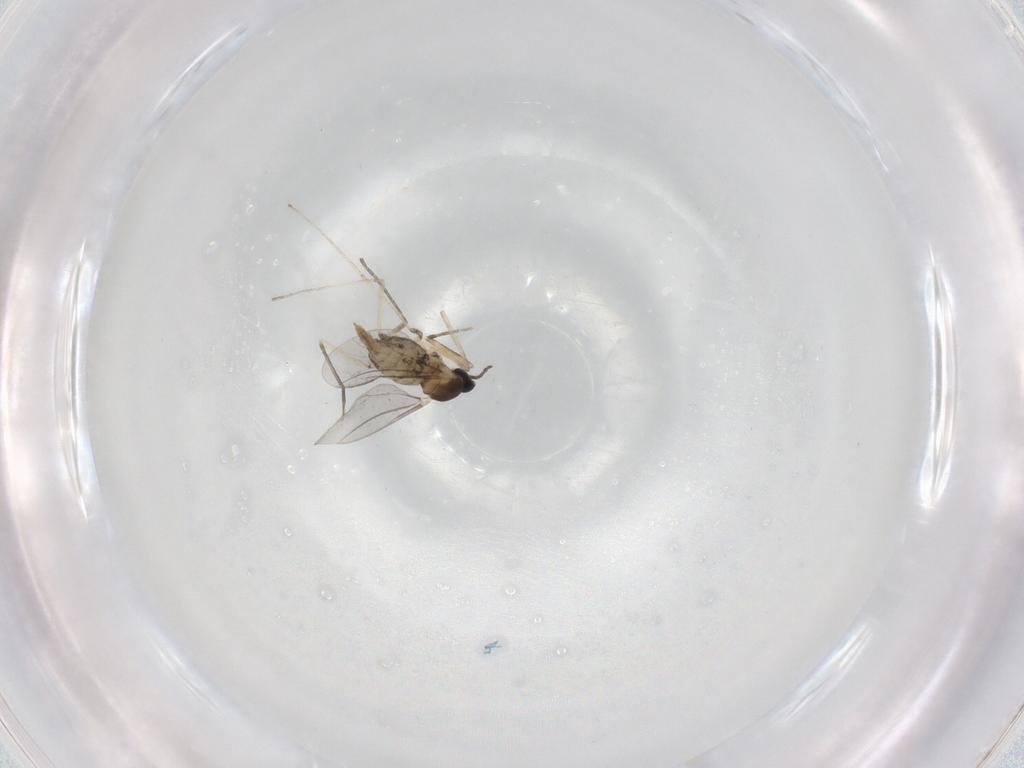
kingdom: Animalia
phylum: Arthropoda
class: Insecta
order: Diptera
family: Cecidomyiidae
